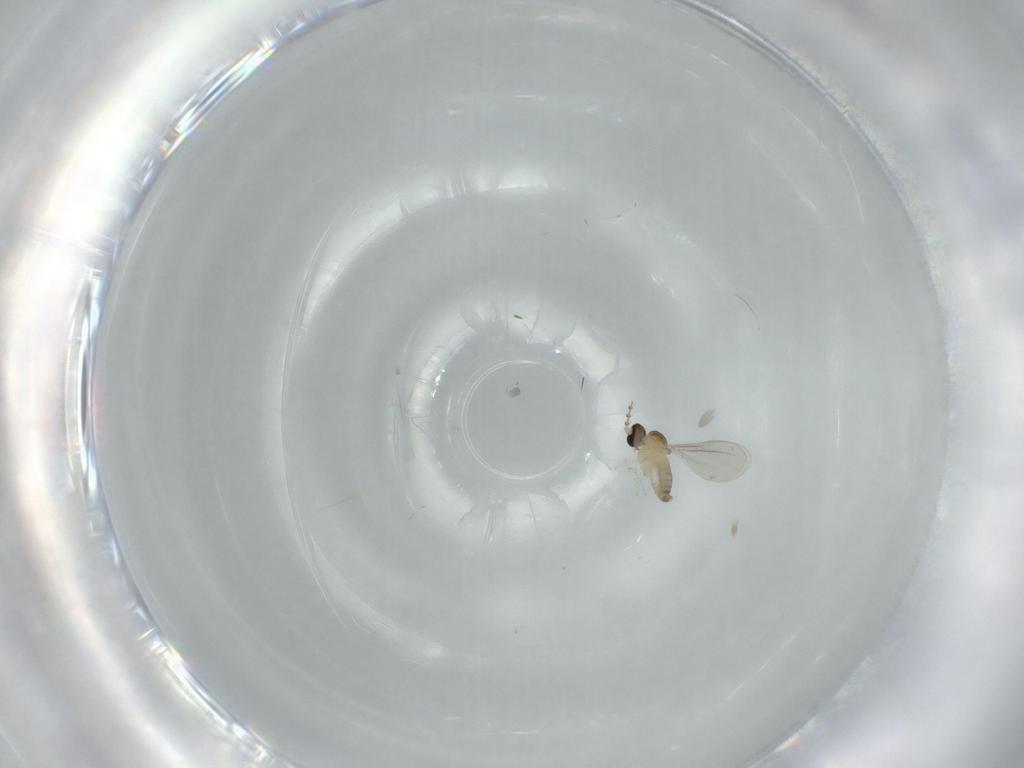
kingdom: Animalia
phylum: Arthropoda
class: Insecta
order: Diptera
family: Cecidomyiidae
